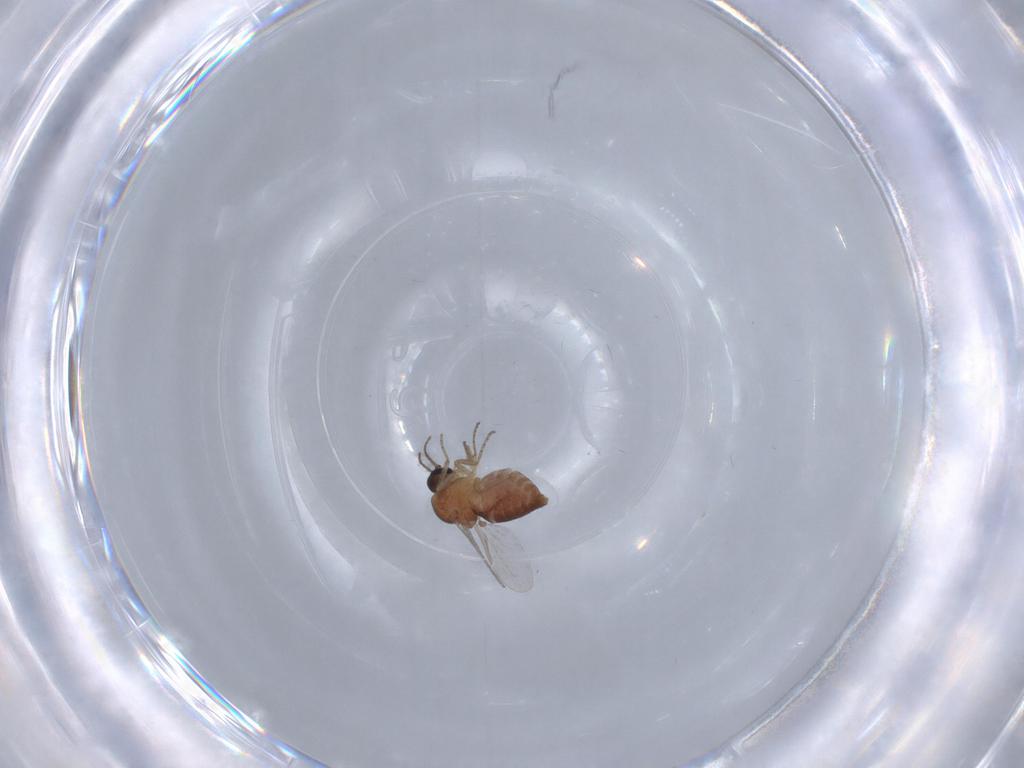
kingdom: Animalia
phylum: Arthropoda
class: Insecta
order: Diptera
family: Ceratopogonidae
